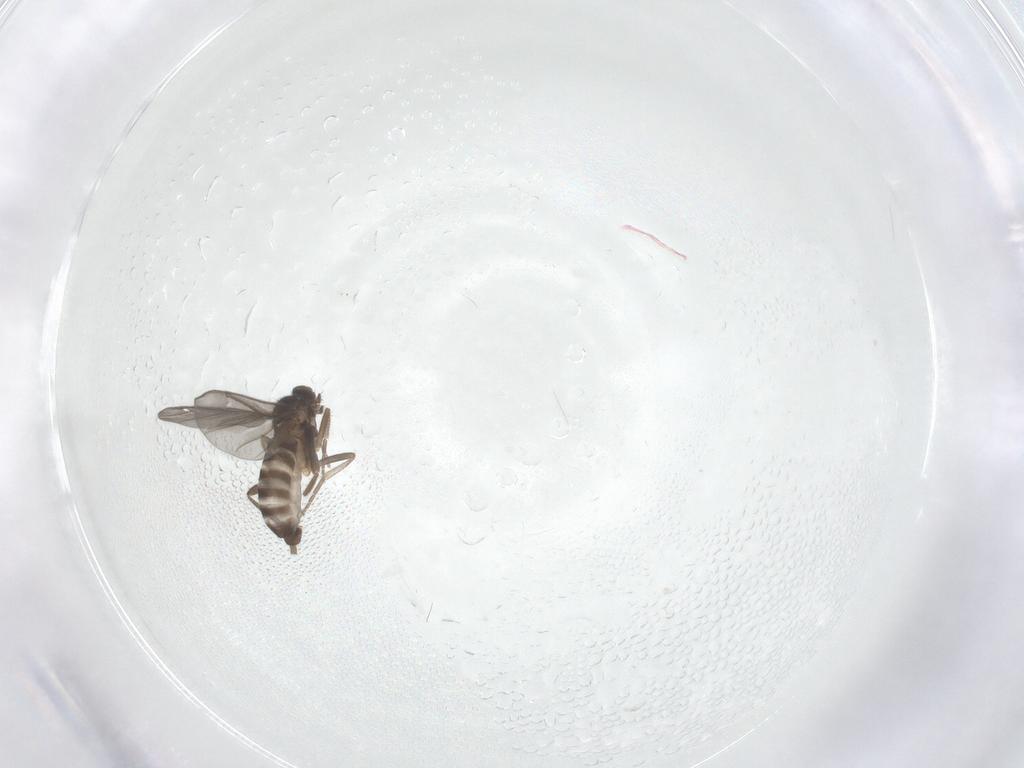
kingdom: Animalia
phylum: Arthropoda
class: Insecta
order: Diptera
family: Phoridae
